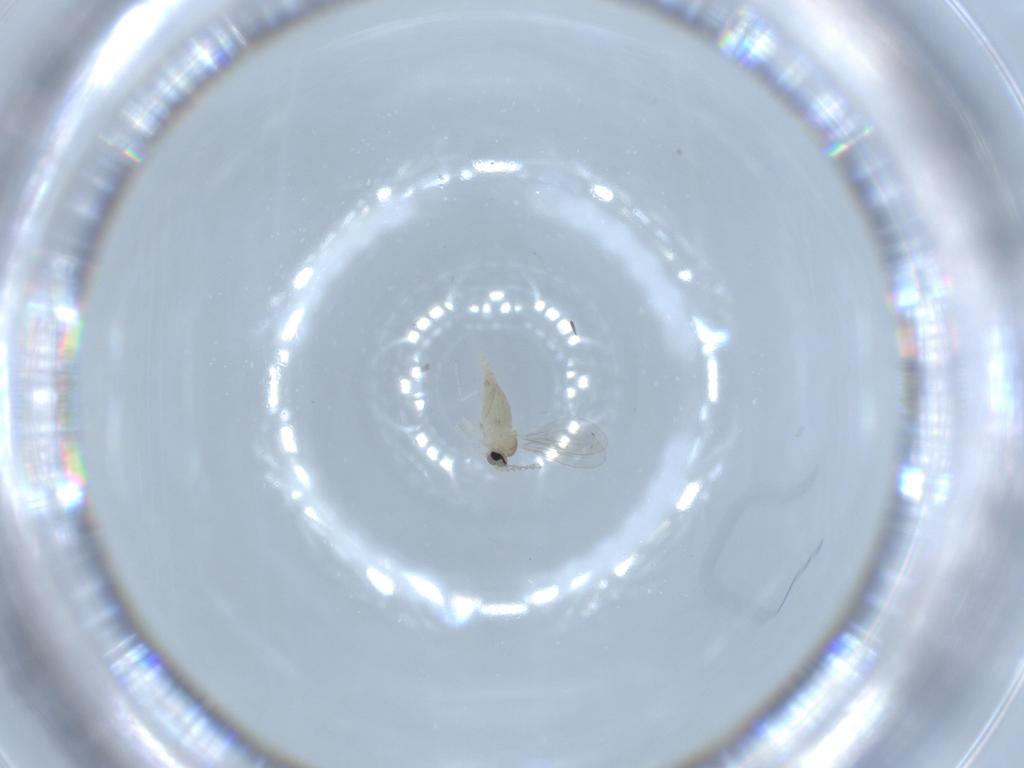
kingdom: Animalia
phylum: Arthropoda
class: Insecta
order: Diptera
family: Cecidomyiidae
